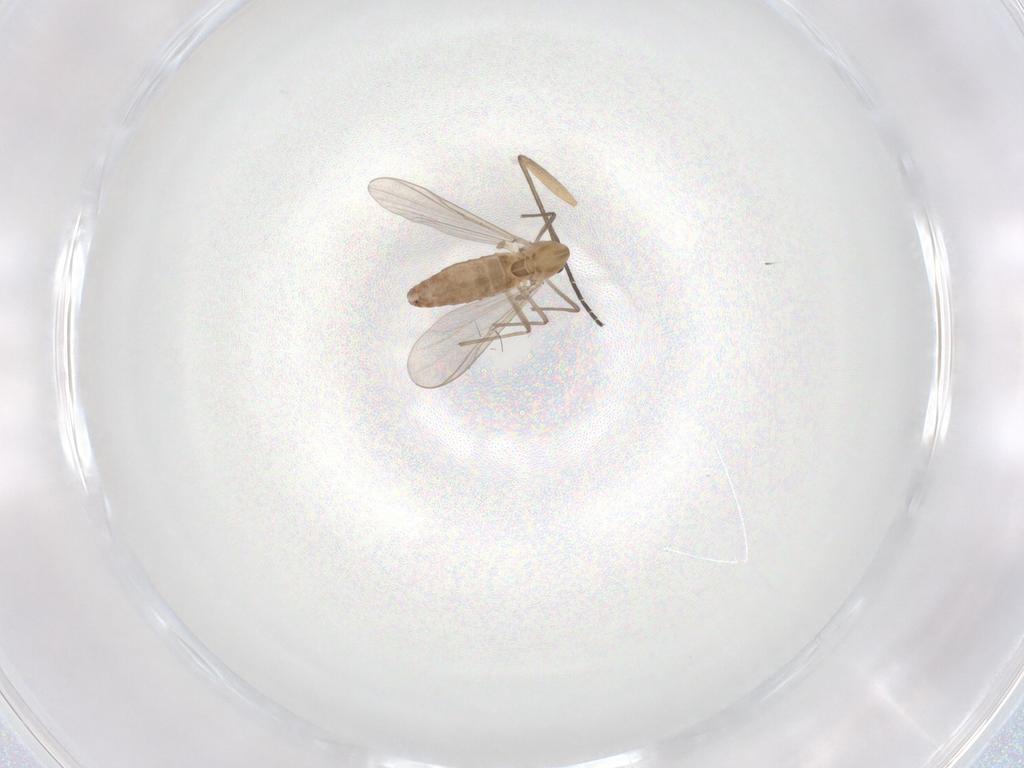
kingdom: Animalia
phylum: Arthropoda
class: Insecta
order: Diptera
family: Chironomidae
